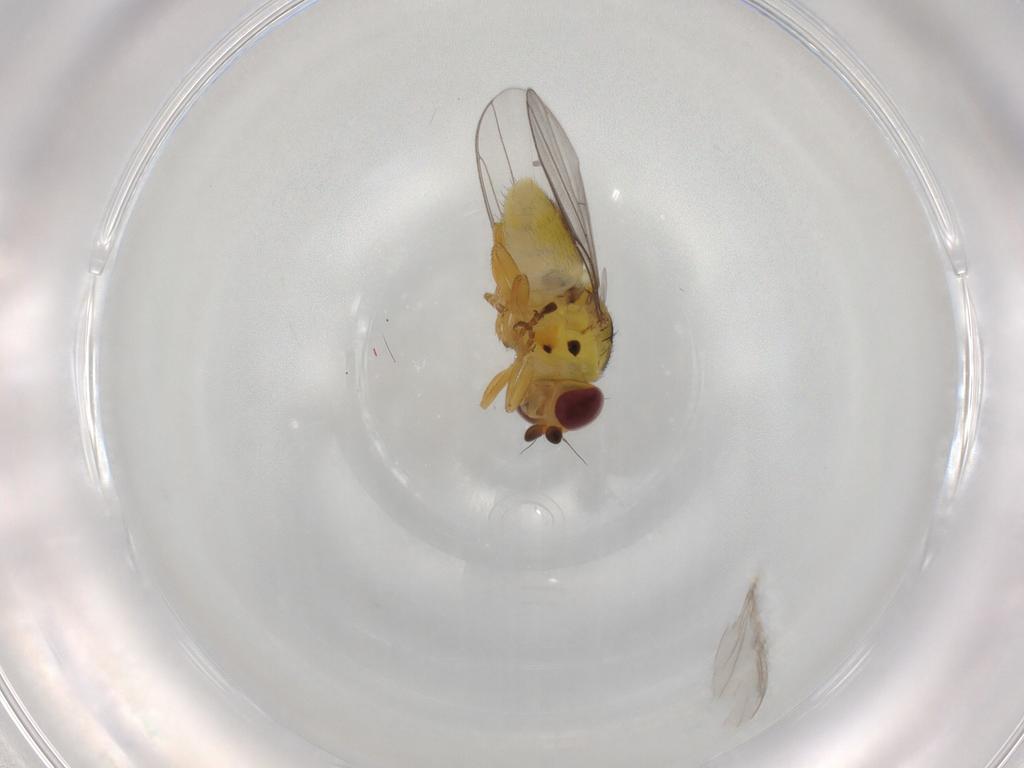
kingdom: Animalia
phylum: Arthropoda
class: Insecta
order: Diptera
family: Chloropidae
